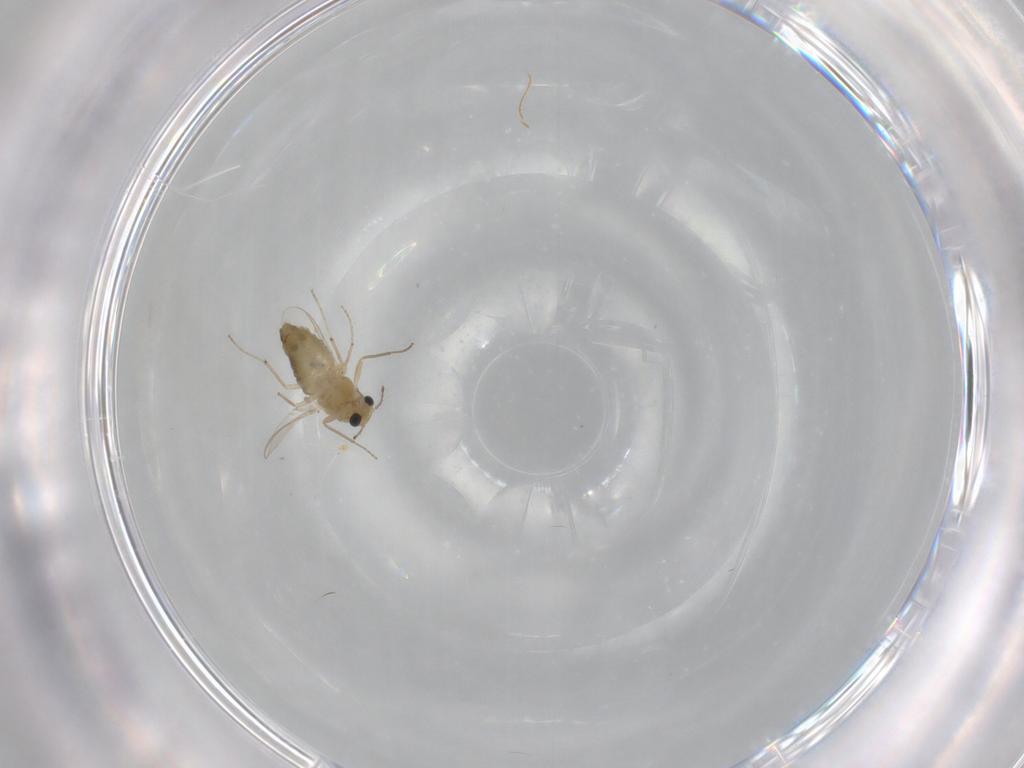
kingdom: Animalia
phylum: Arthropoda
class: Insecta
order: Diptera
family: Chironomidae
